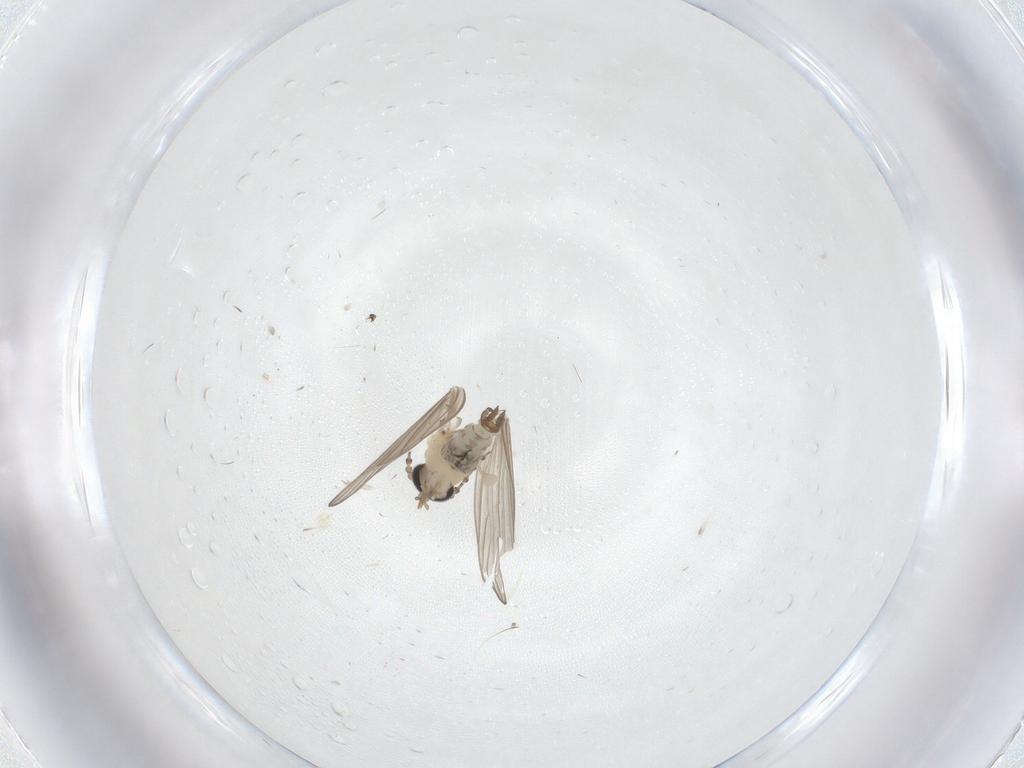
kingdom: Animalia
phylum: Arthropoda
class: Insecta
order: Diptera
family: Psychodidae
